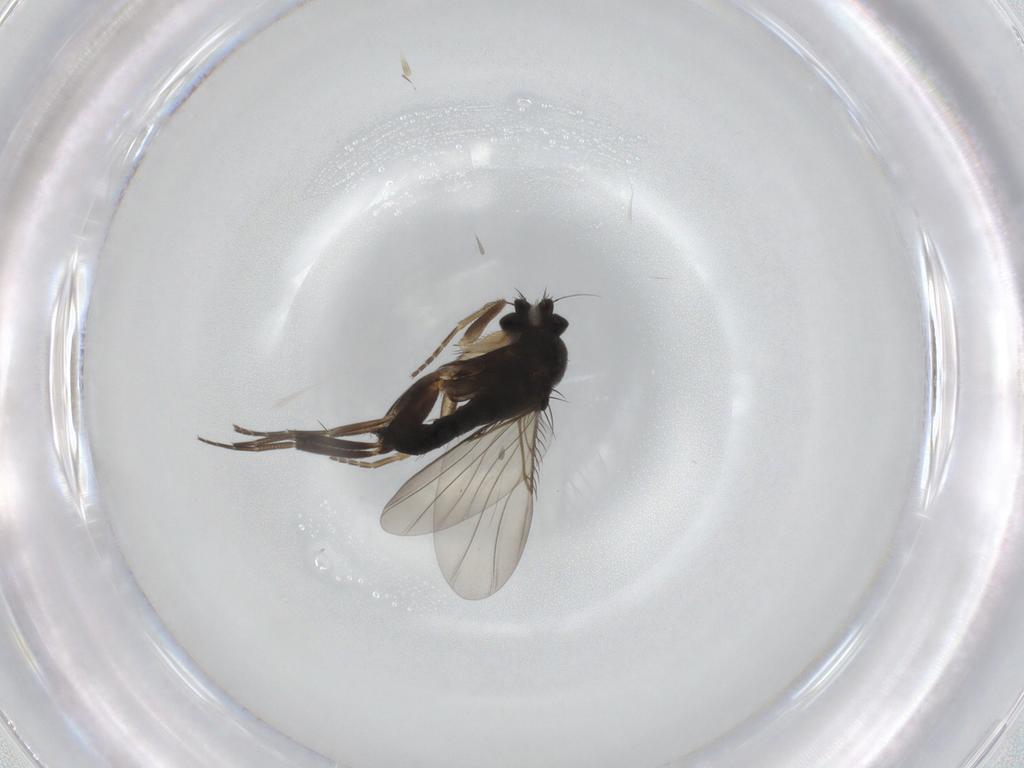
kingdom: Animalia
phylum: Arthropoda
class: Insecta
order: Diptera
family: Phoridae
